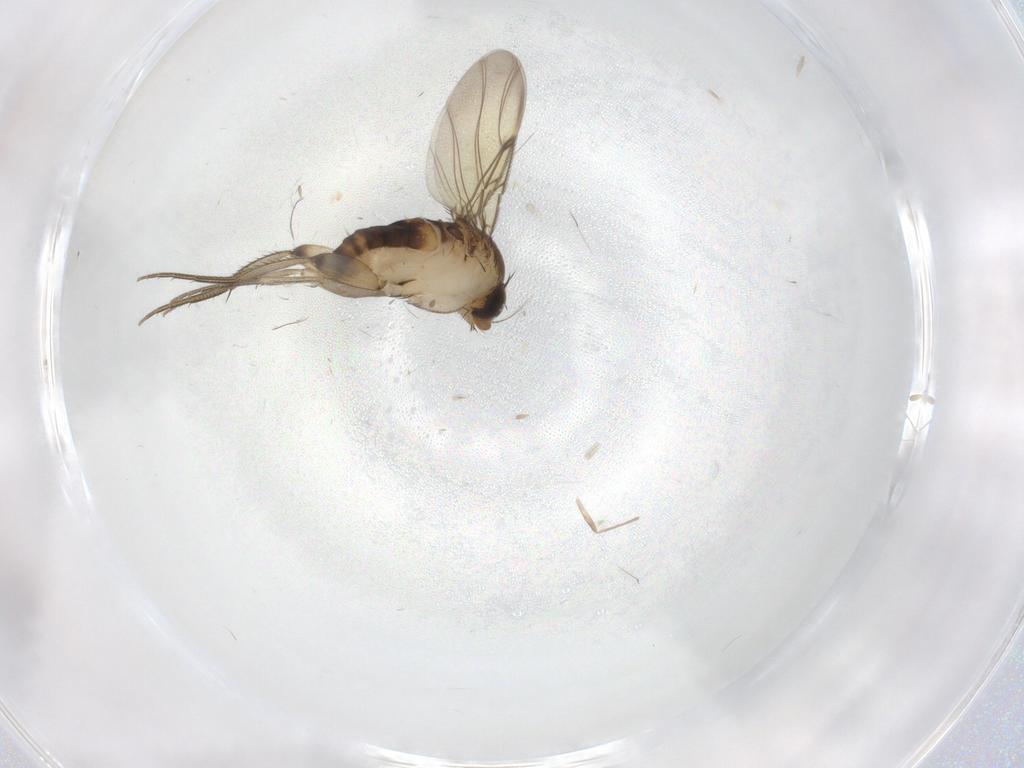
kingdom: Animalia
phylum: Arthropoda
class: Insecta
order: Diptera
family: Phoridae
